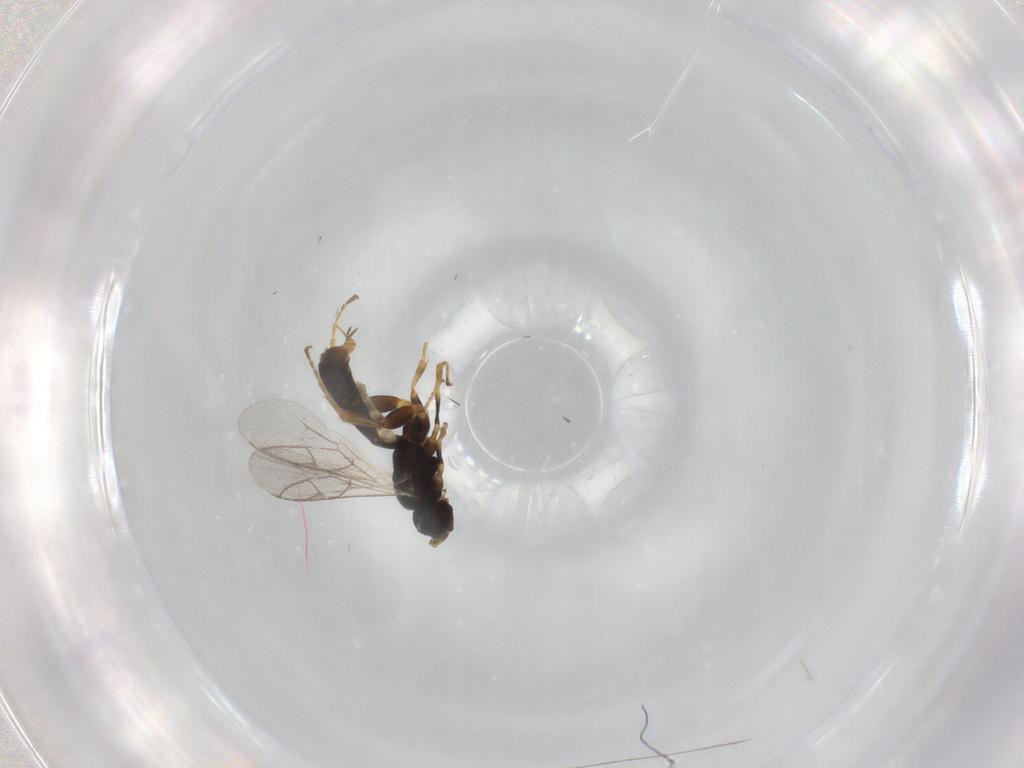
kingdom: Animalia
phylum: Arthropoda
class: Insecta
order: Hymenoptera
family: Ichneumonidae
